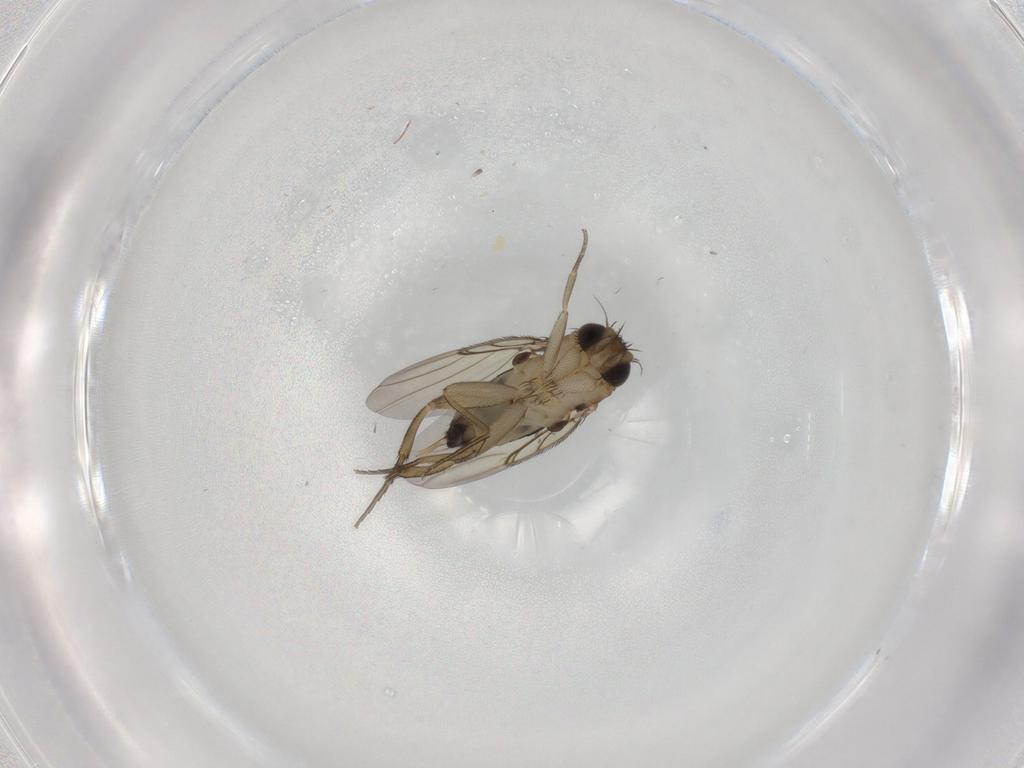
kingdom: Animalia
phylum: Arthropoda
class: Insecta
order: Diptera
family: Phoridae
